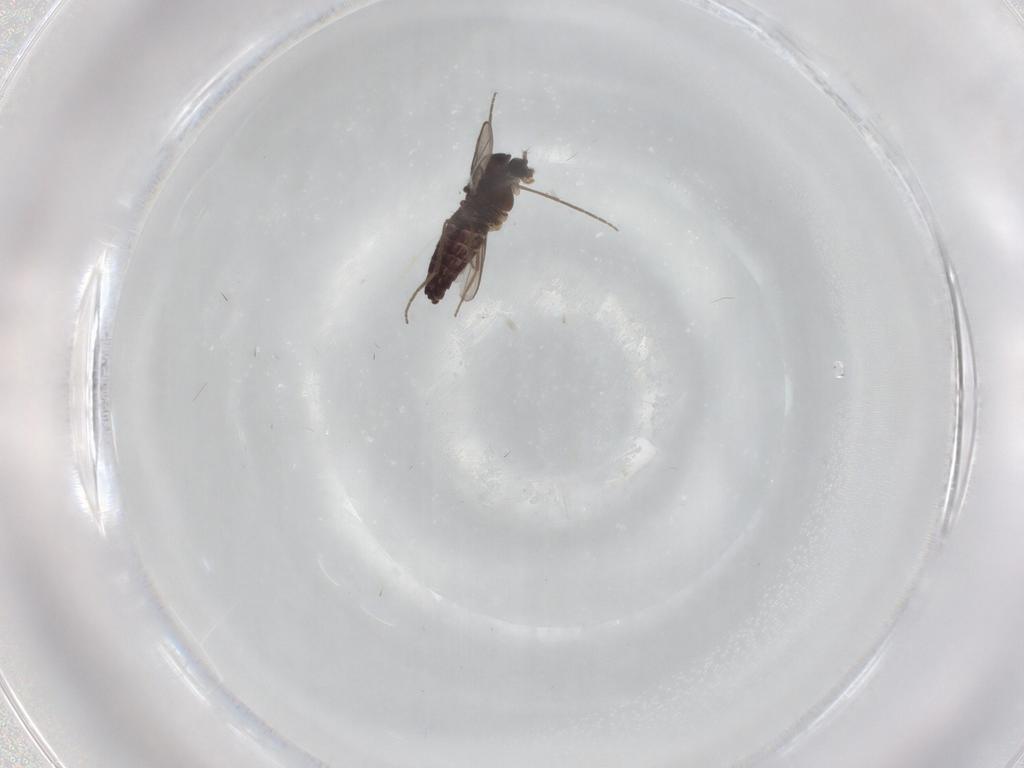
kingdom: Animalia
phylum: Arthropoda
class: Insecta
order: Diptera
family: Chironomidae
